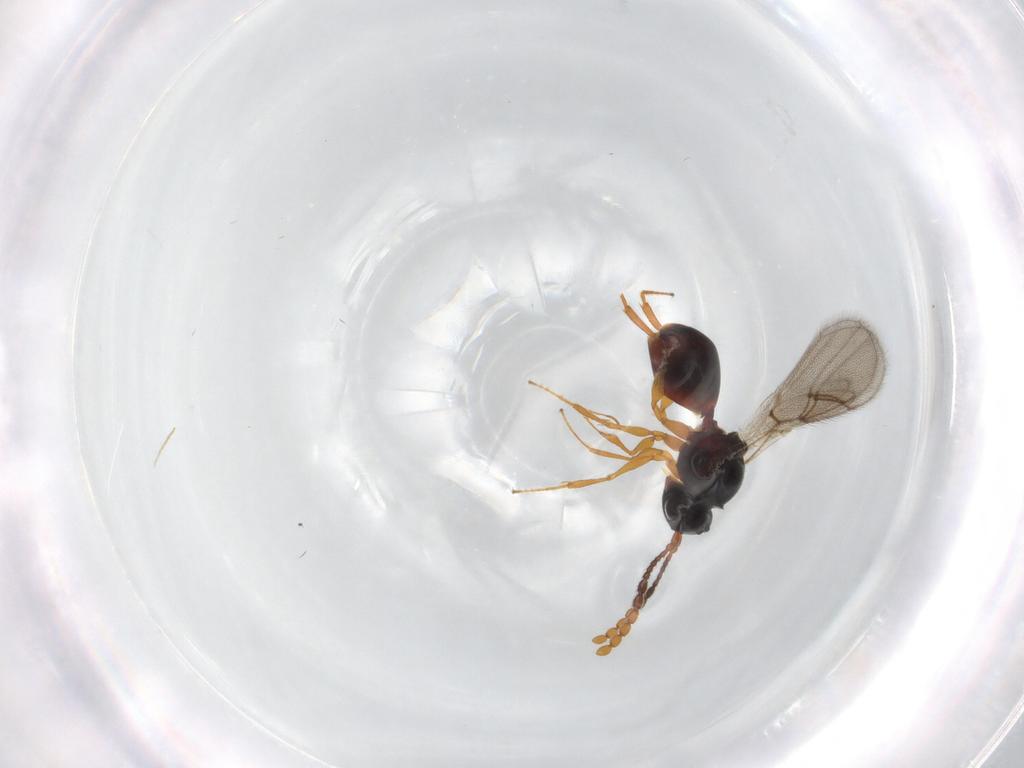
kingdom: Animalia
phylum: Arthropoda
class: Insecta
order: Hymenoptera
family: Figitidae
